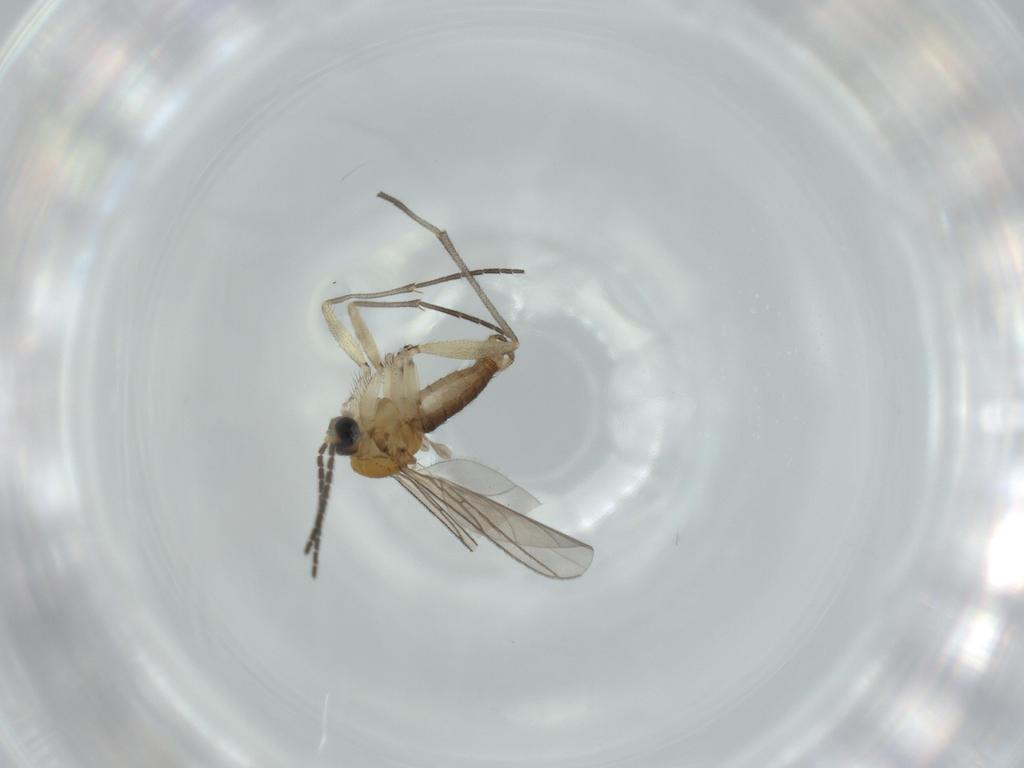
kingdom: Animalia
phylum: Arthropoda
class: Insecta
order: Diptera
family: Sciaridae
